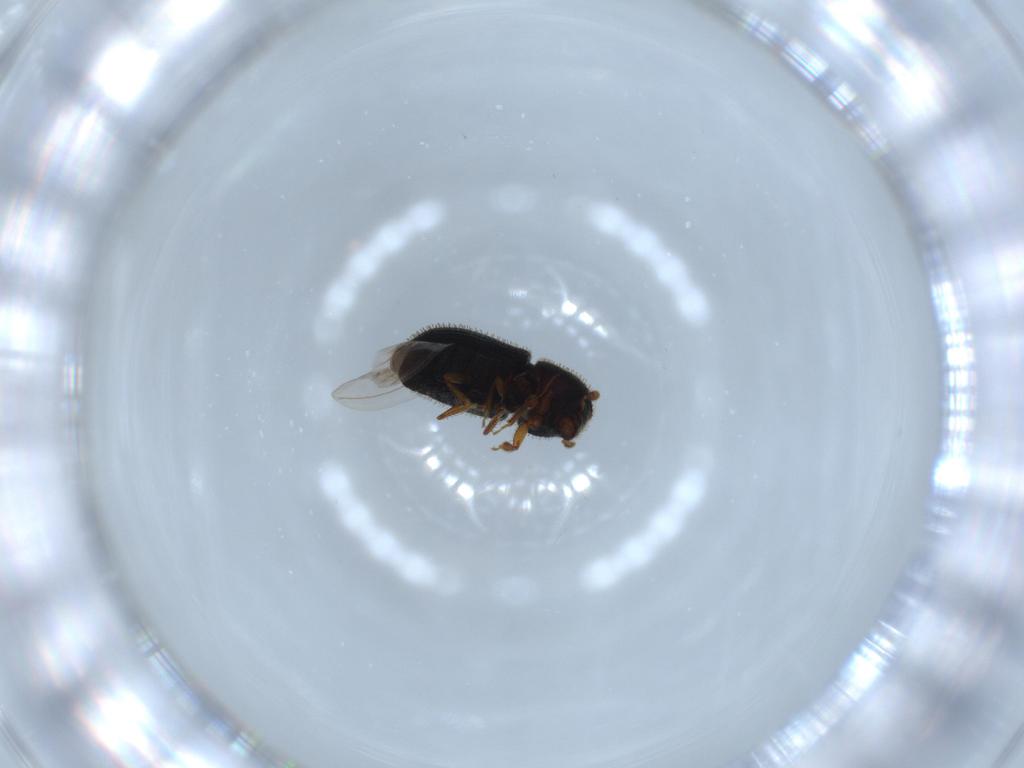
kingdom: Animalia
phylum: Arthropoda
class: Insecta
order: Coleoptera
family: Curculionidae
